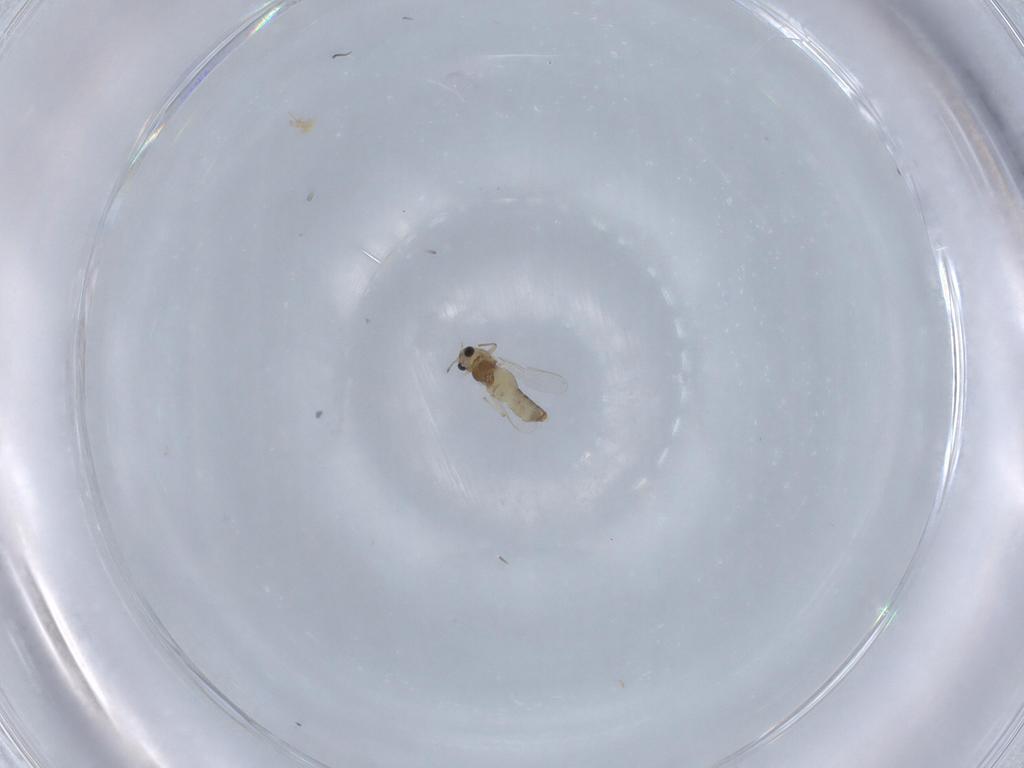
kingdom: Animalia
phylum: Arthropoda
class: Insecta
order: Diptera
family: Chironomidae
